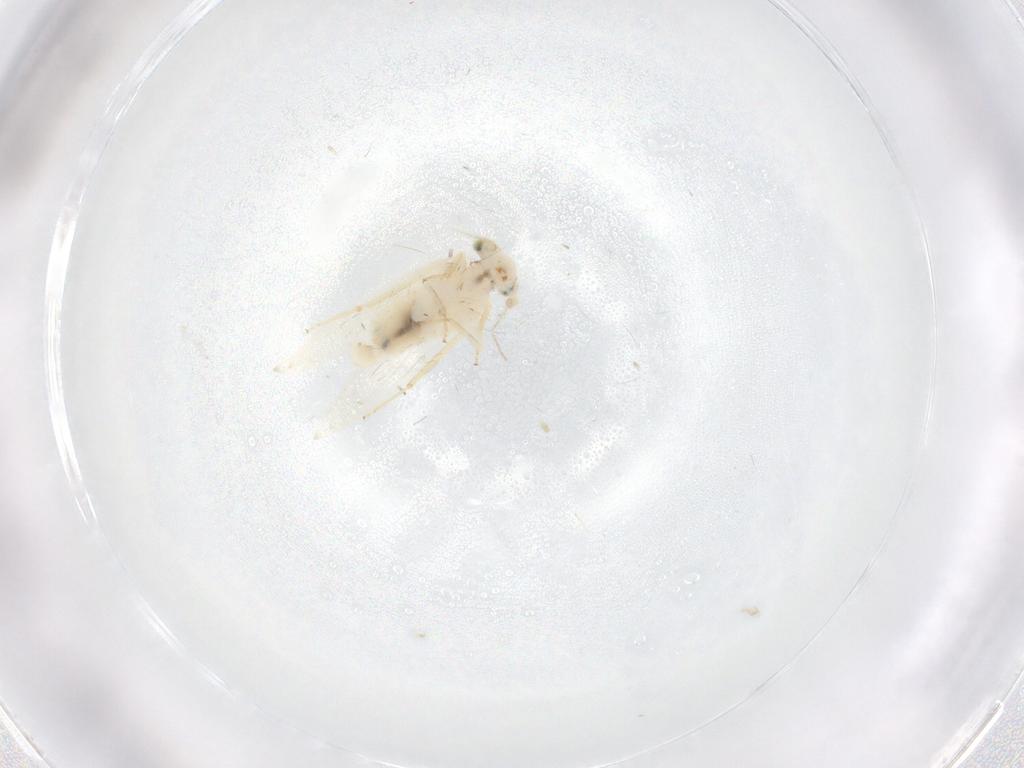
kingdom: Animalia
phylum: Arthropoda
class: Insecta
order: Psocodea
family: Lepidopsocidae
